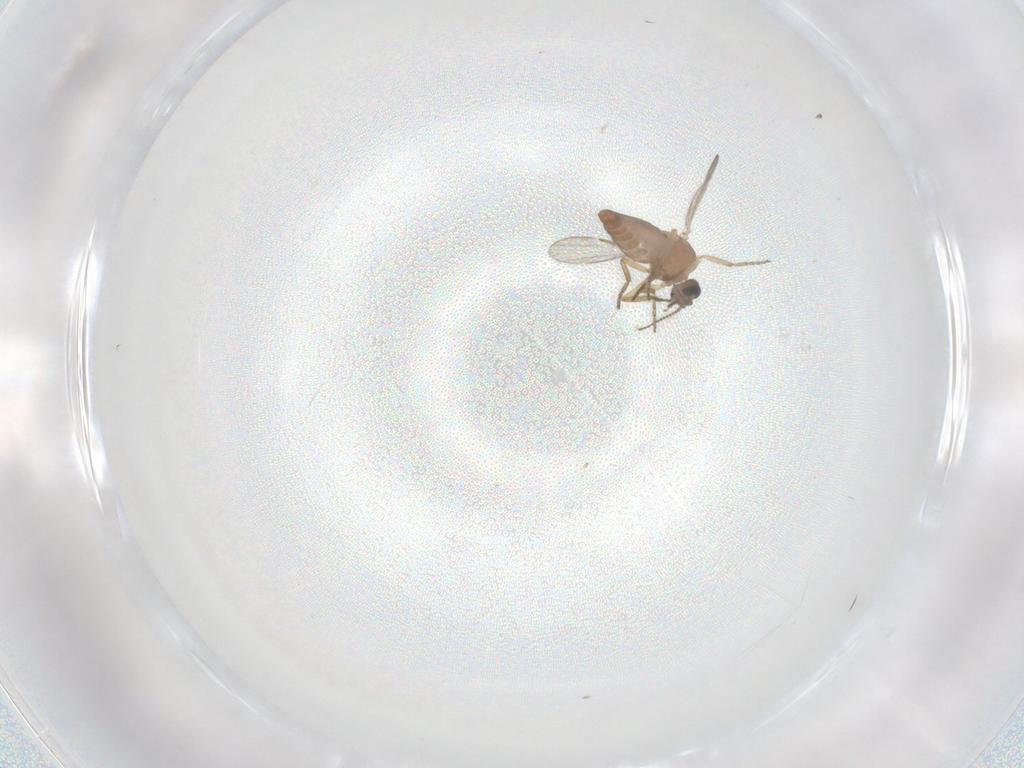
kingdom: Animalia
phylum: Arthropoda
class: Insecta
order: Diptera
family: Ceratopogonidae
